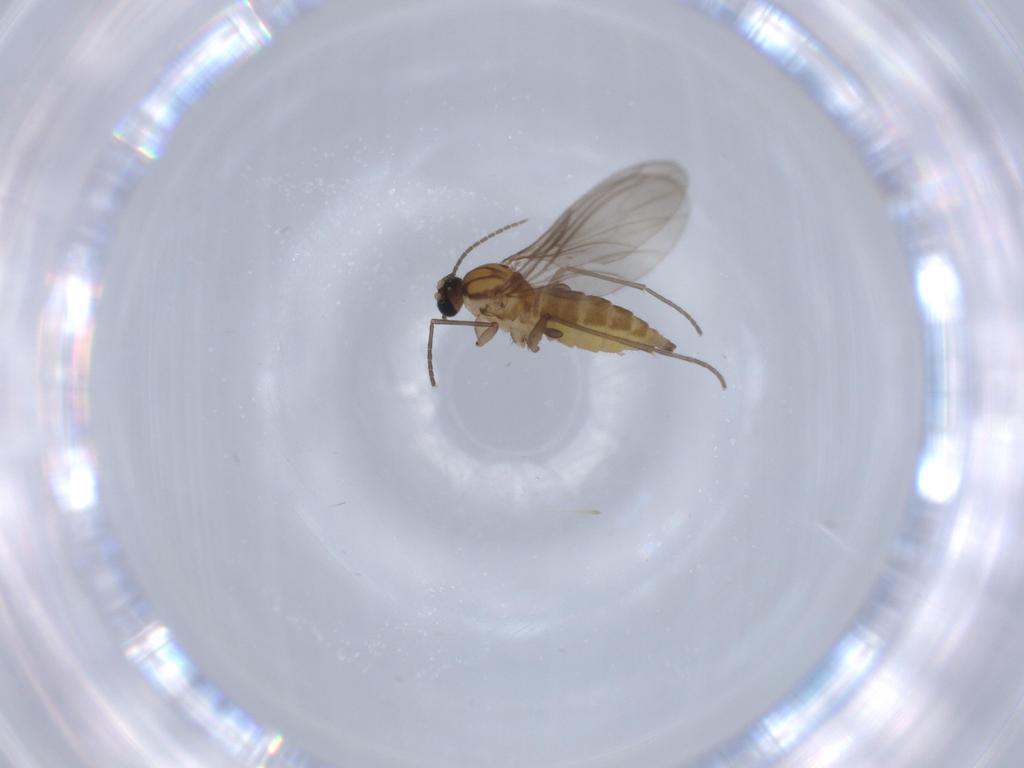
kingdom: Animalia
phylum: Arthropoda
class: Insecta
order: Diptera
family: Sciaridae
